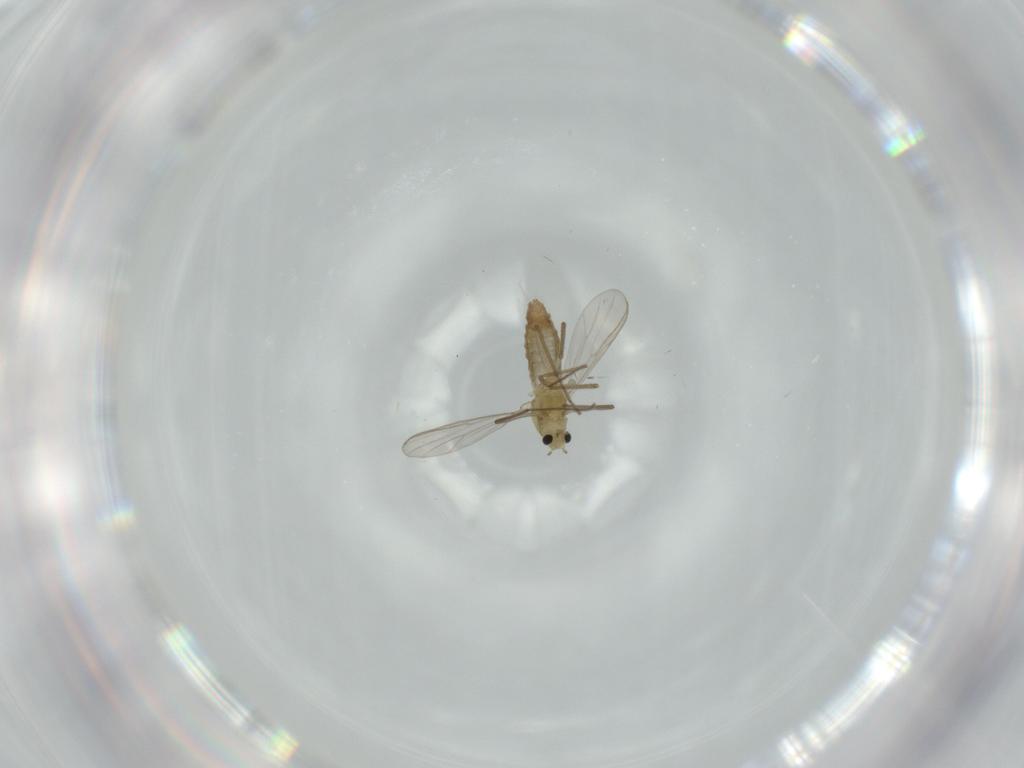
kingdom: Animalia
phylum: Arthropoda
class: Insecta
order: Diptera
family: Chironomidae
